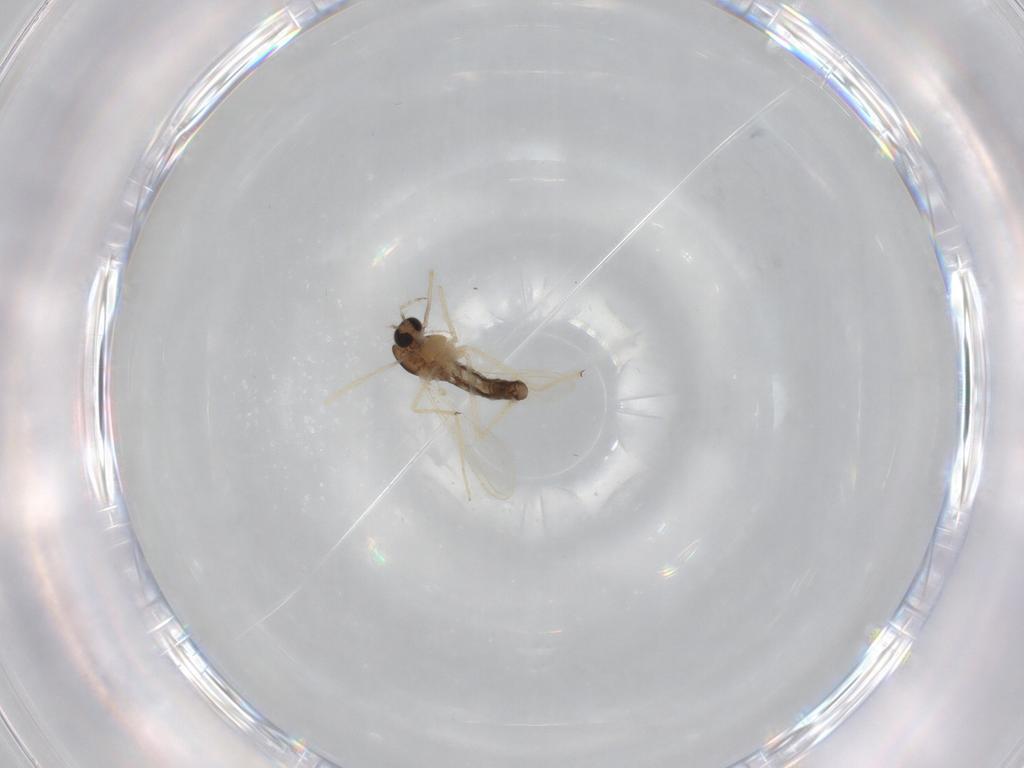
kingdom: Animalia
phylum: Arthropoda
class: Insecta
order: Diptera
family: Chironomidae
